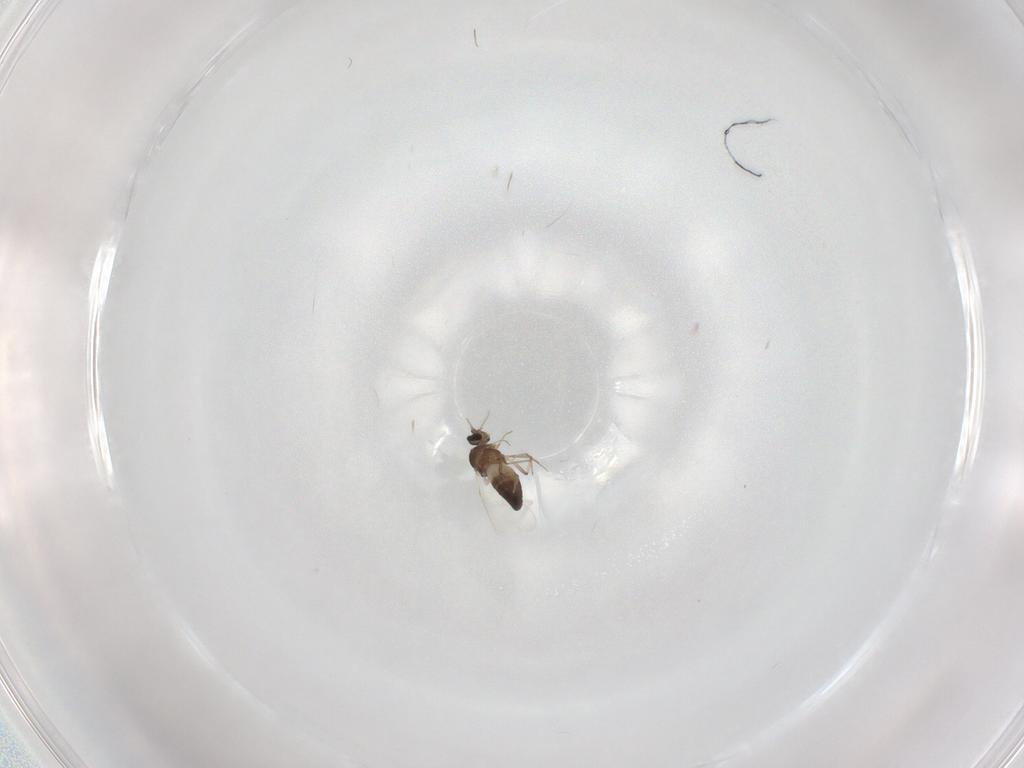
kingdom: Animalia
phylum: Arthropoda
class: Insecta
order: Diptera
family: Ceratopogonidae
